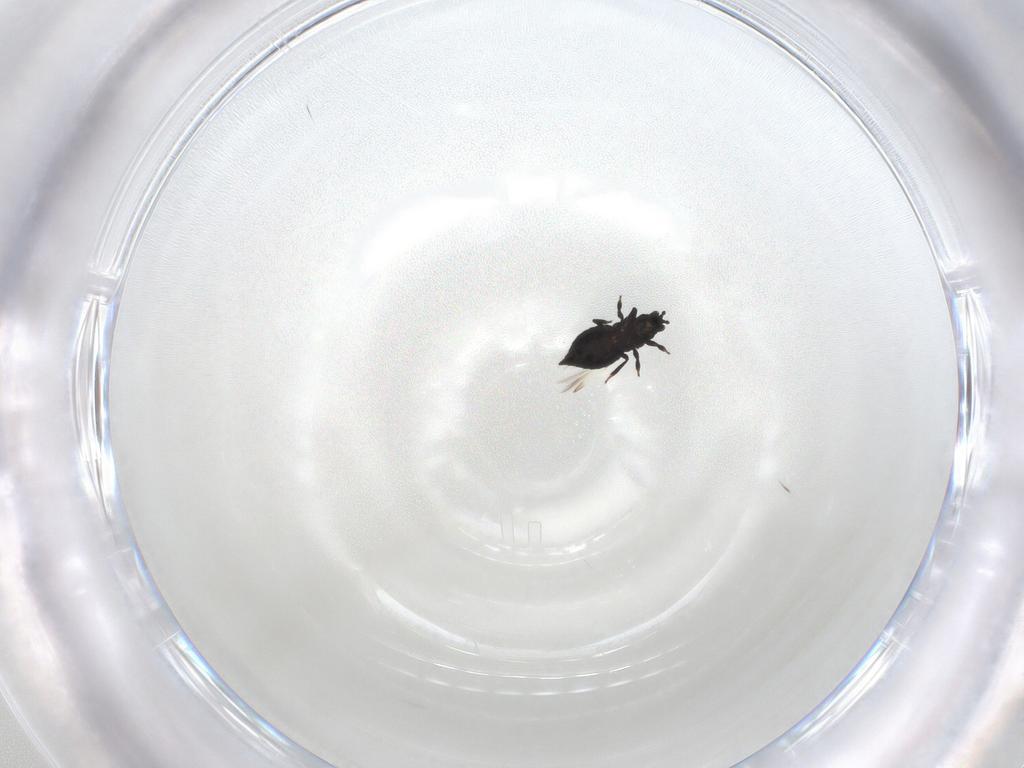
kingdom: Animalia
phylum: Arthropoda
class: Insecta
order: Thysanoptera
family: Thripidae
